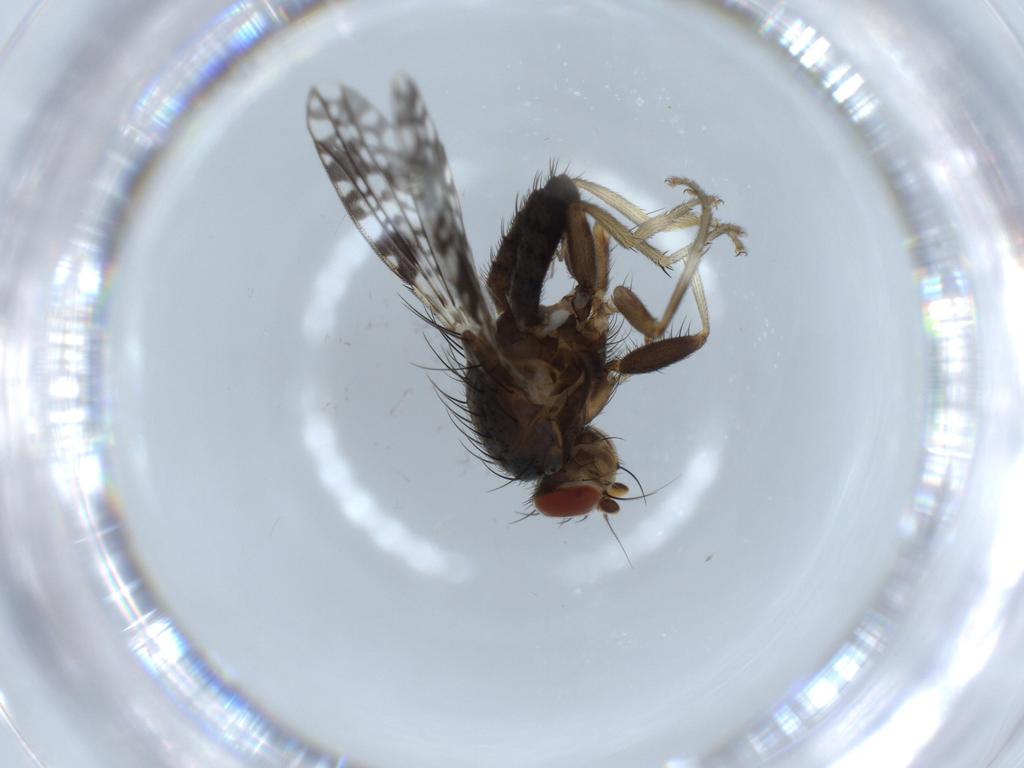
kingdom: Animalia
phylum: Arthropoda
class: Insecta
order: Diptera
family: Tephritidae
